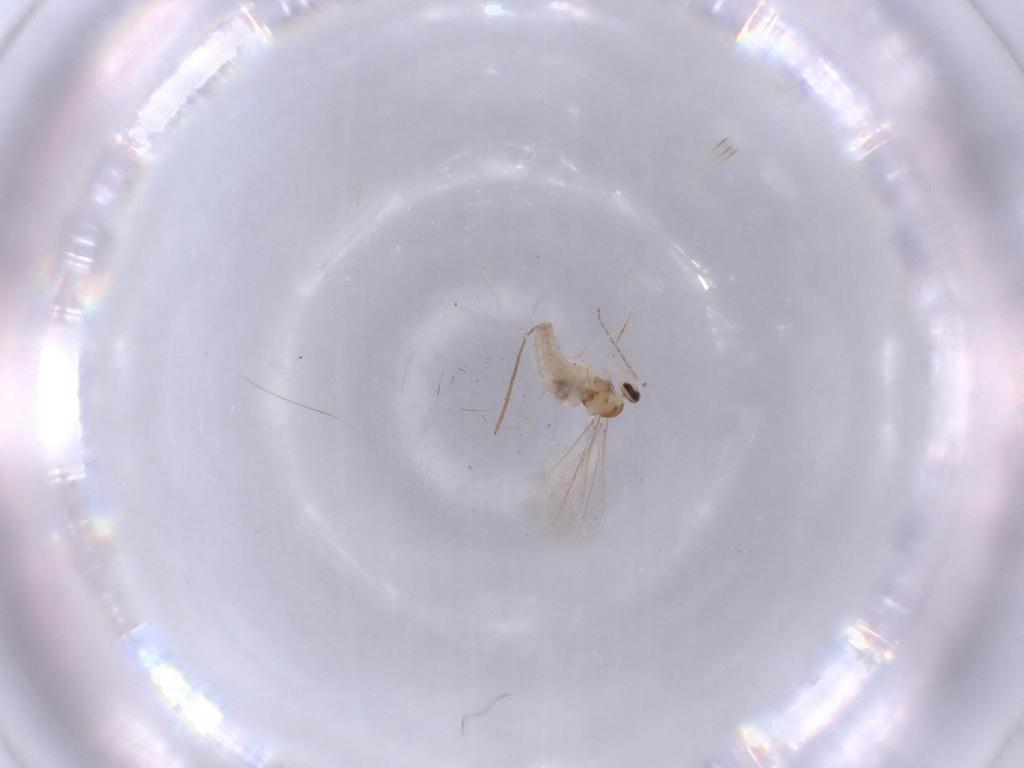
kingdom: Animalia
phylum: Arthropoda
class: Insecta
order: Diptera
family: Cecidomyiidae
